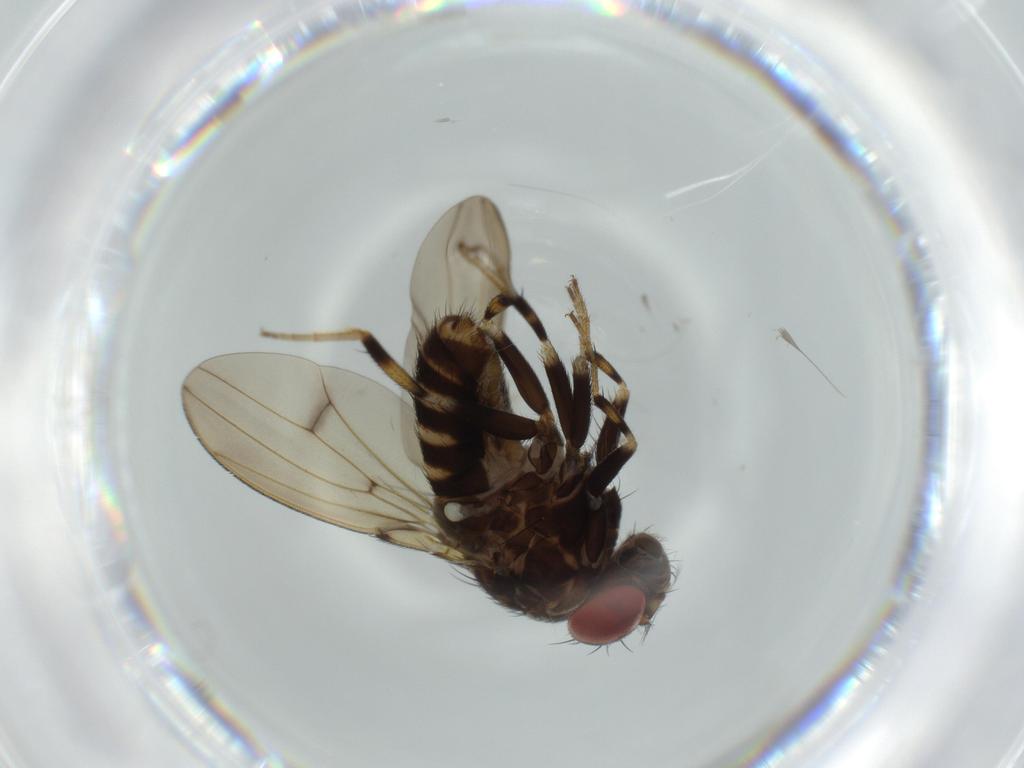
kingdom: Animalia
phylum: Arthropoda
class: Insecta
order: Diptera
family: Drosophilidae
